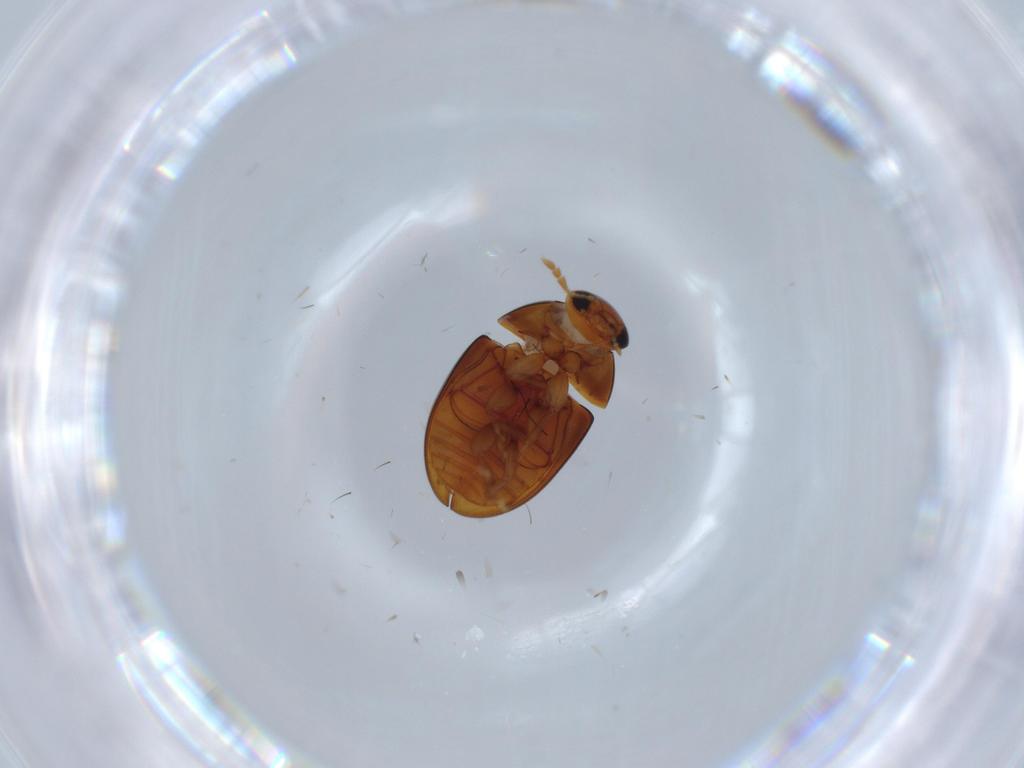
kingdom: Animalia
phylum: Arthropoda
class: Insecta
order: Coleoptera
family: Phalacridae
